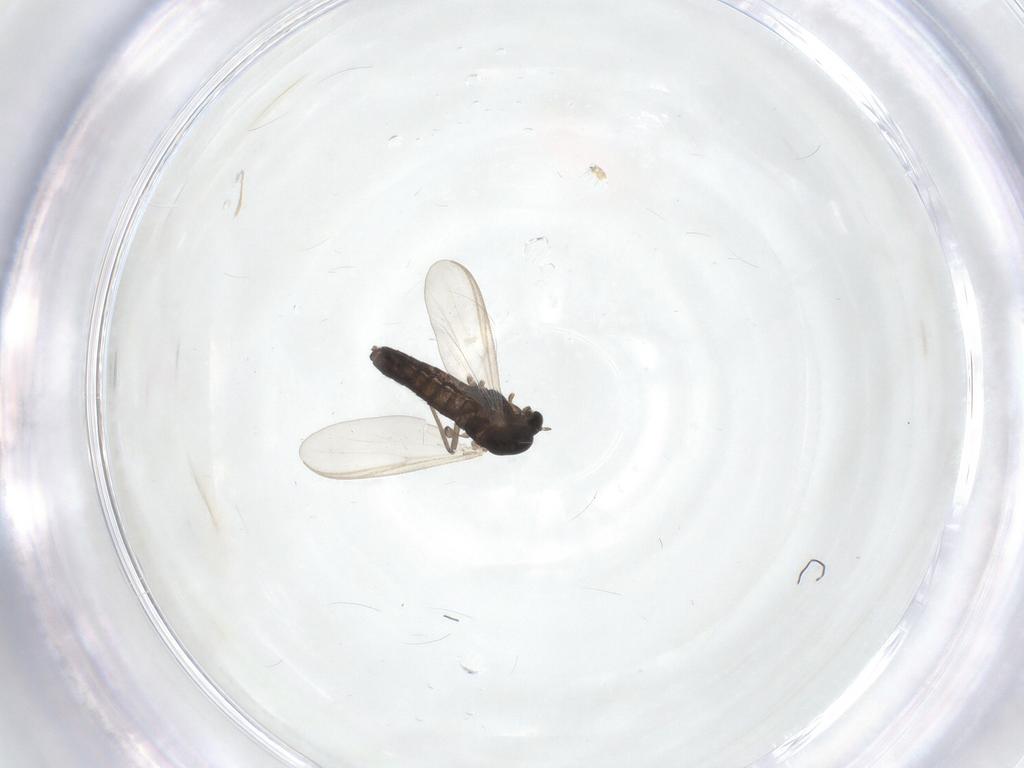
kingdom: Animalia
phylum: Arthropoda
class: Insecta
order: Diptera
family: Chironomidae
